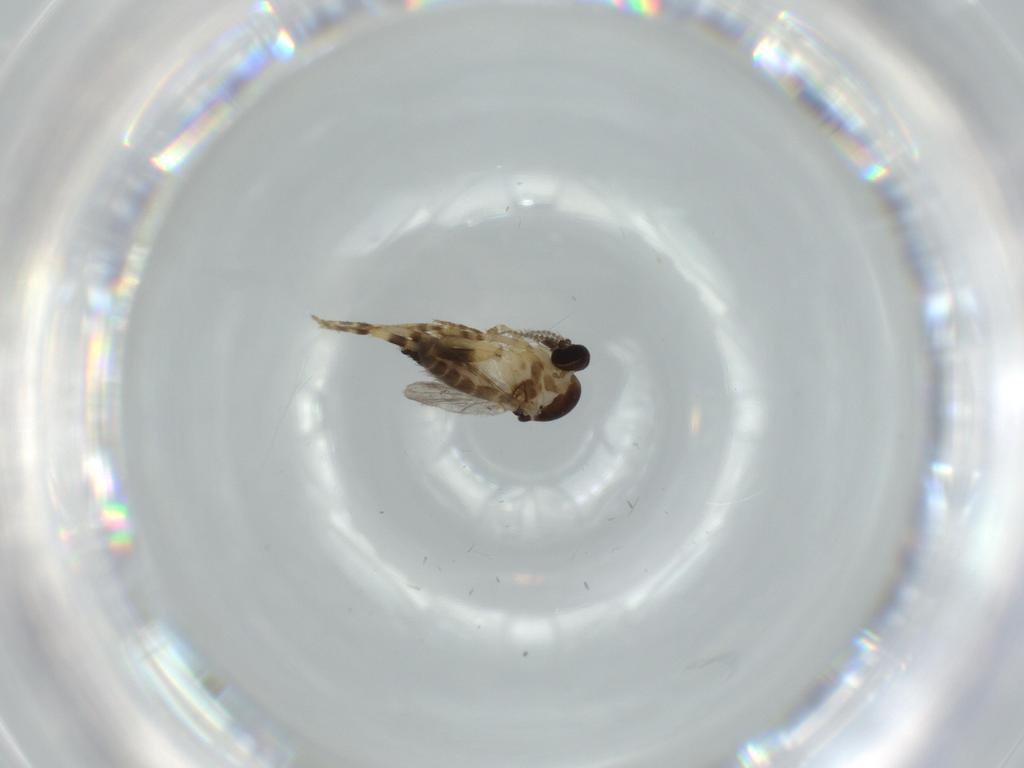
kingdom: Animalia
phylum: Arthropoda
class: Insecta
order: Diptera
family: Ceratopogonidae
